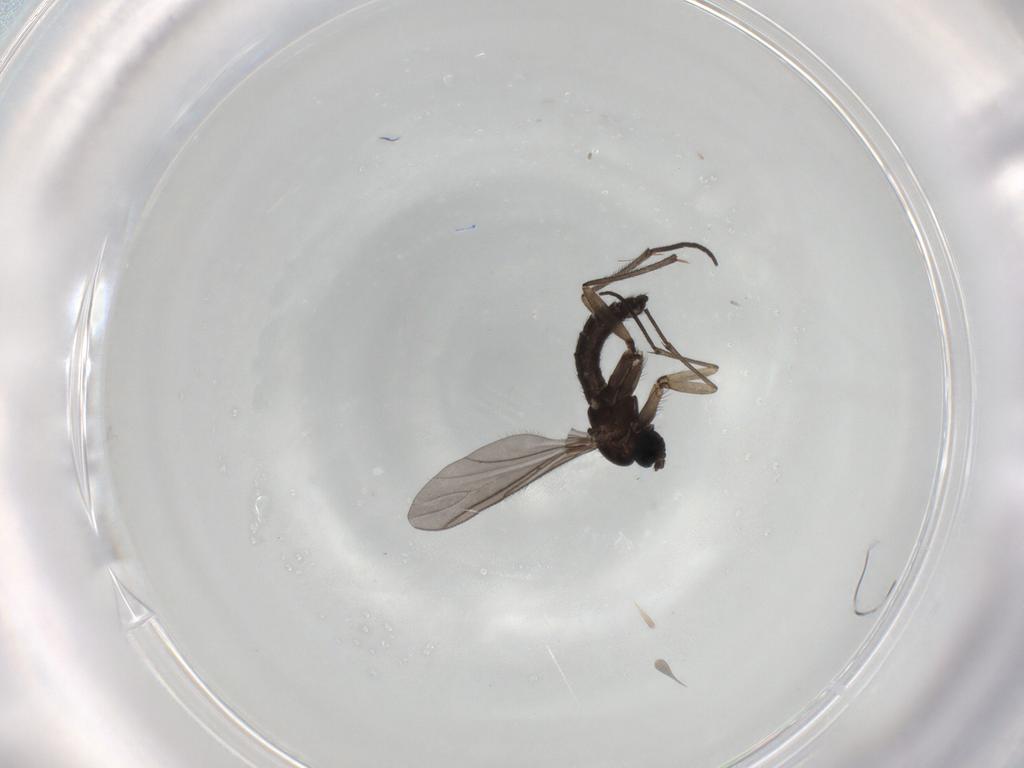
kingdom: Animalia
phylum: Arthropoda
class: Insecta
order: Diptera
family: Sciaridae
